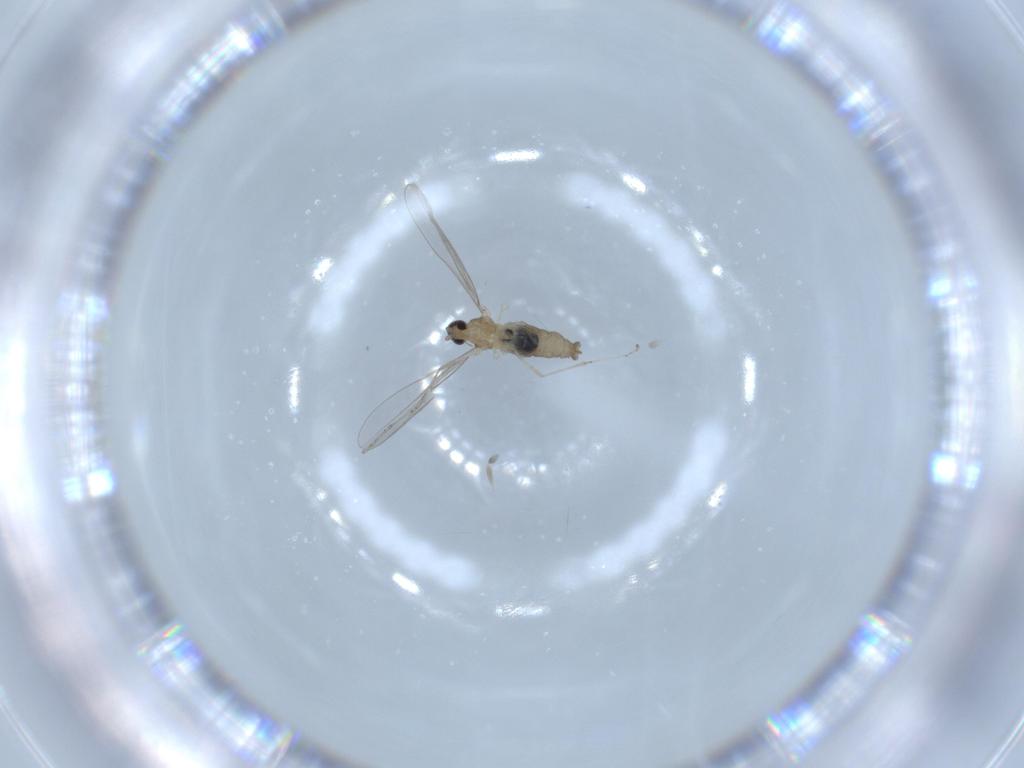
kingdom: Animalia
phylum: Arthropoda
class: Insecta
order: Diptera
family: Cecidomyiidae
